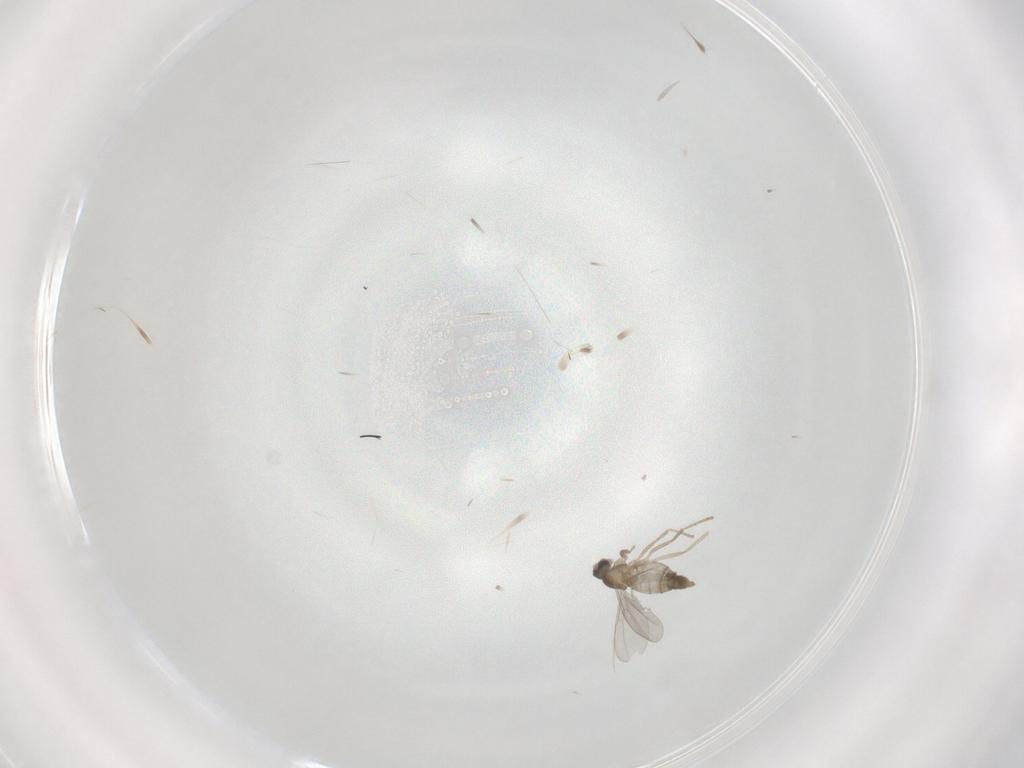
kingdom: Animalia
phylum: Arthropoda
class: Insecta
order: Diptera
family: Cecidomyiidae
